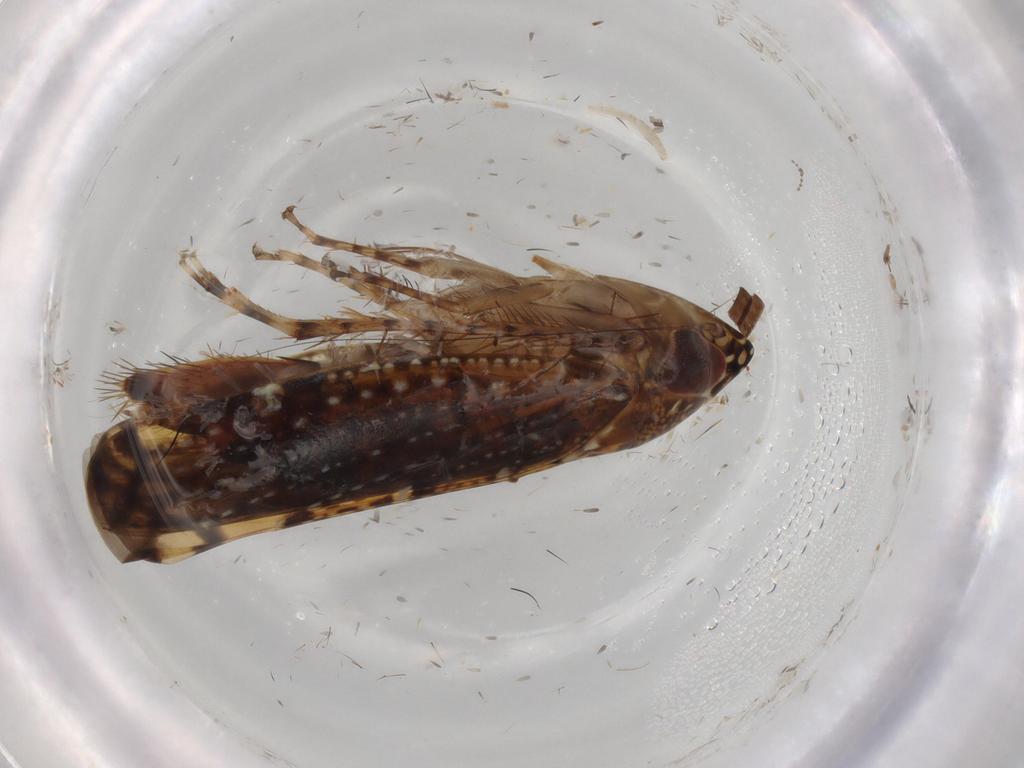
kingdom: Animalia
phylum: Arthropoda
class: Insecta
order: Hemiptera
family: Cicadellidae
